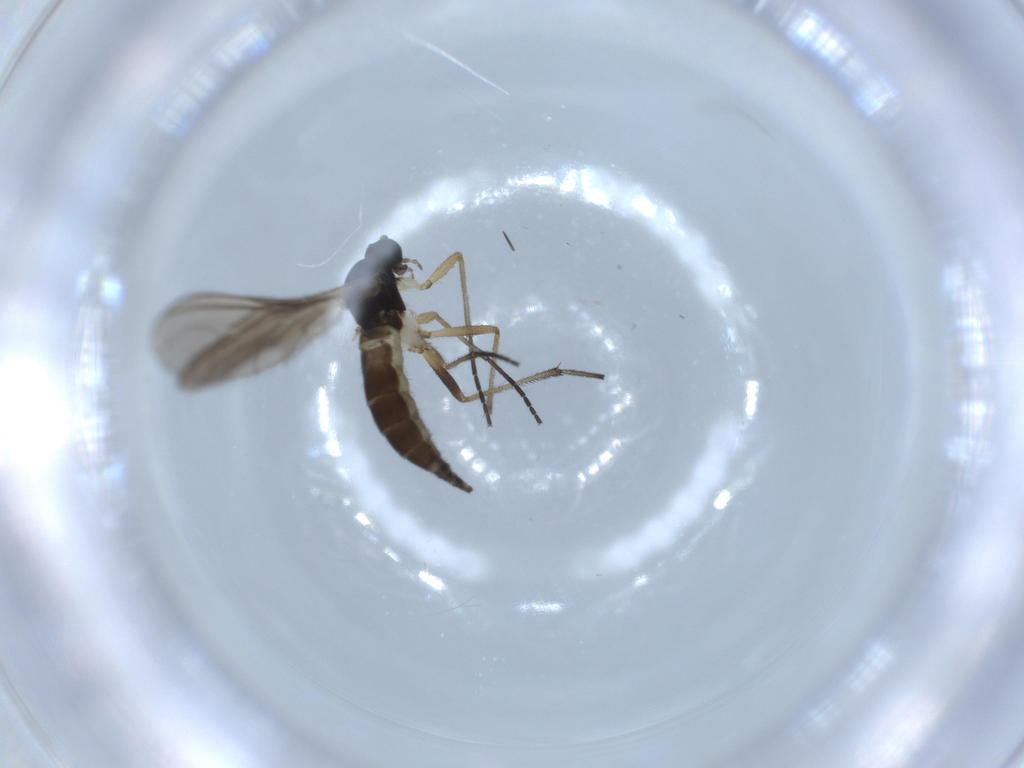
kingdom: Animalia
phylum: Arthropoda
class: Insecta
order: Diptera
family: Sciaridae
